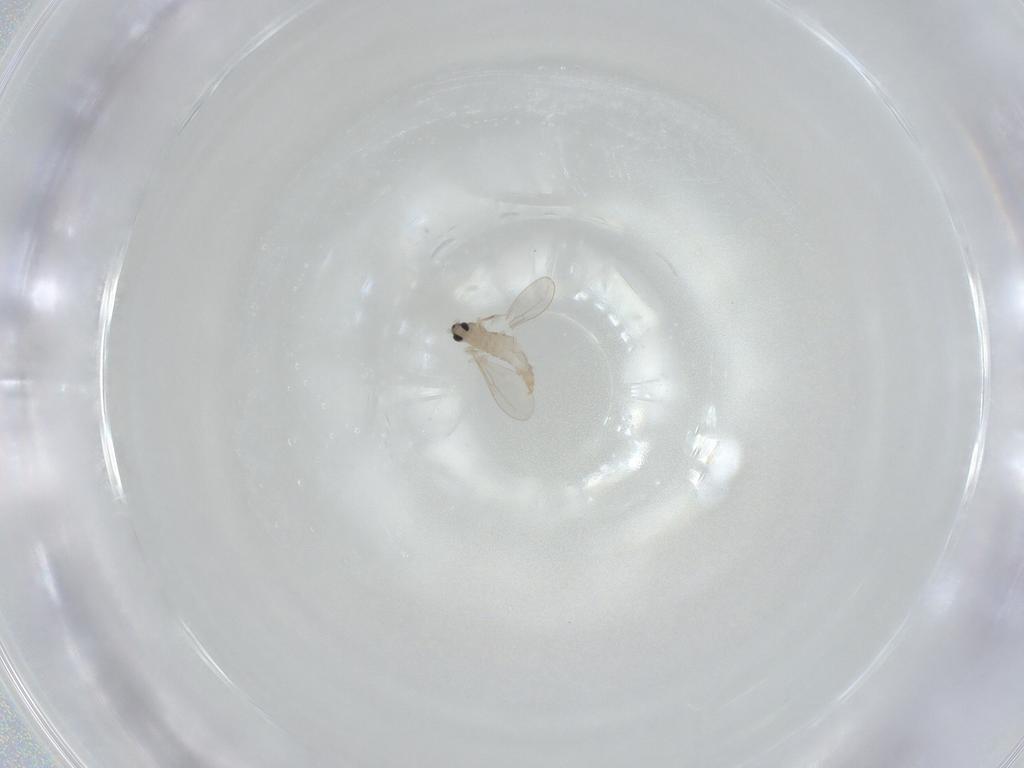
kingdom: Animalia
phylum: Arthropoda
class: Insecta
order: Diptera
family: Cecidomyiidae
